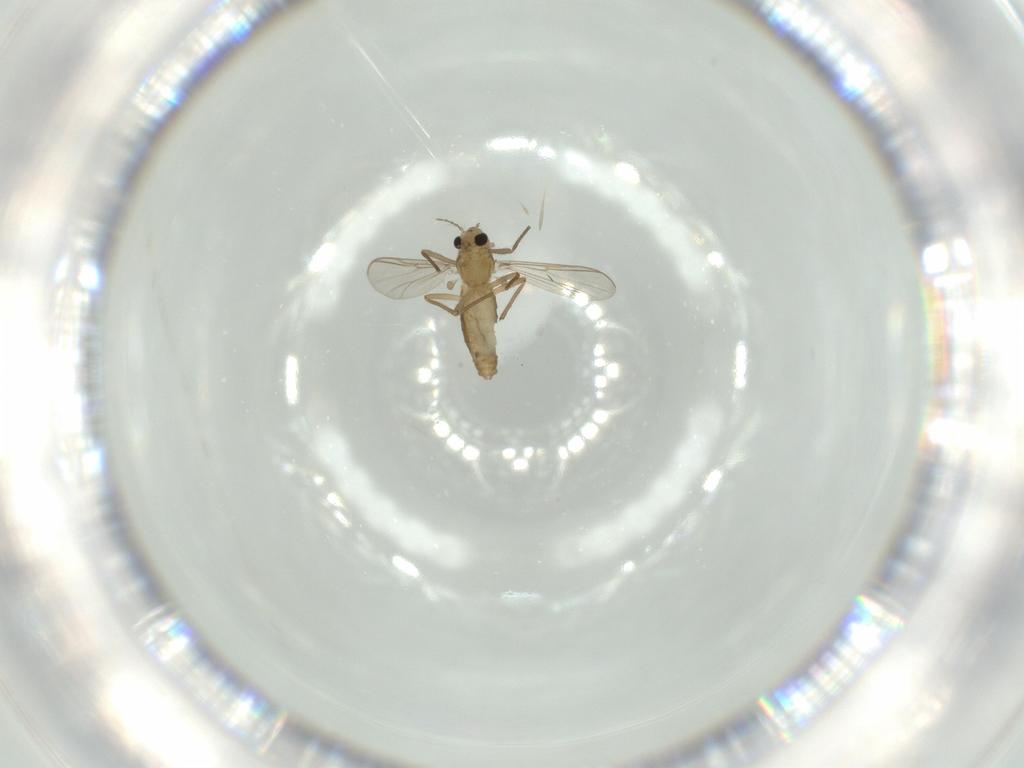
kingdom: Animalia
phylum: Arthropoda
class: Insecta
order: Diptera
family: Chironomidae
